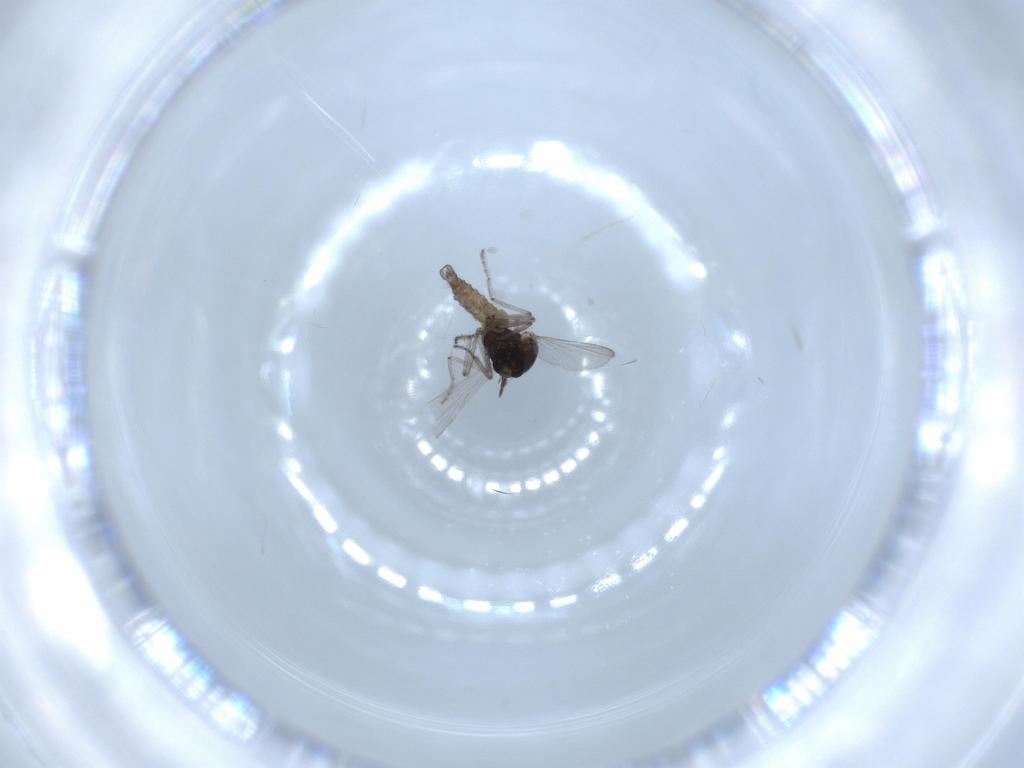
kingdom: Animalia
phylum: Arthropoda
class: Insecta
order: Diptera
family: Ceratopogonidae
